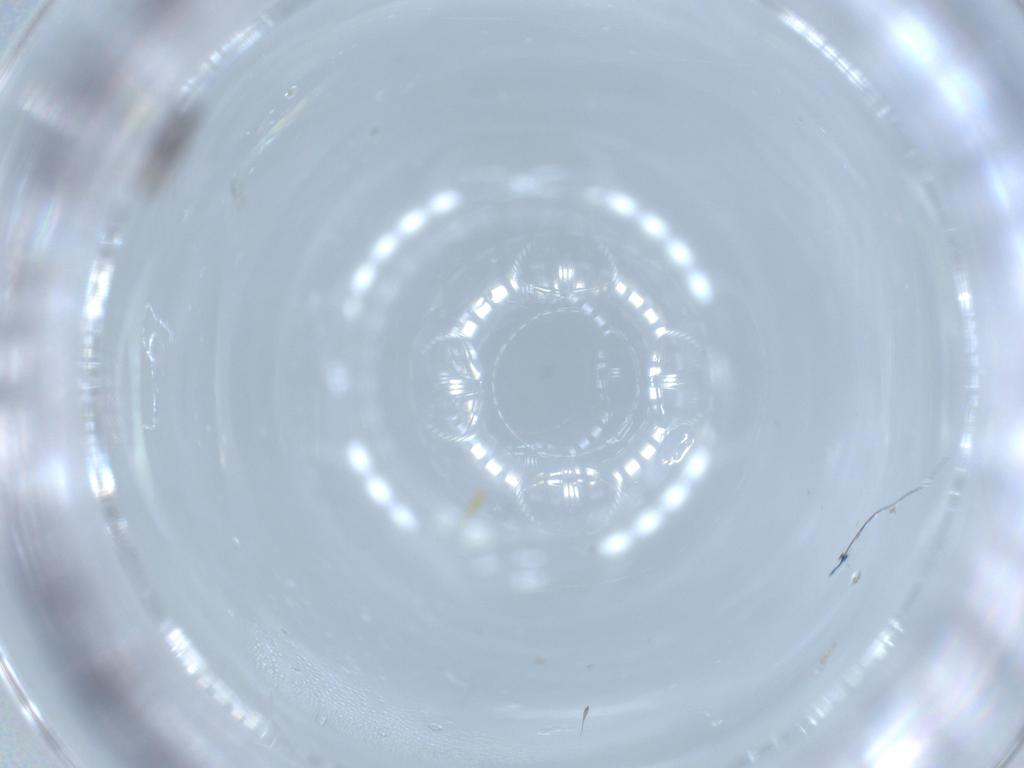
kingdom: Animalia
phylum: Arthropoda
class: Insecta
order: Diptera
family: Cecidomyiidae
